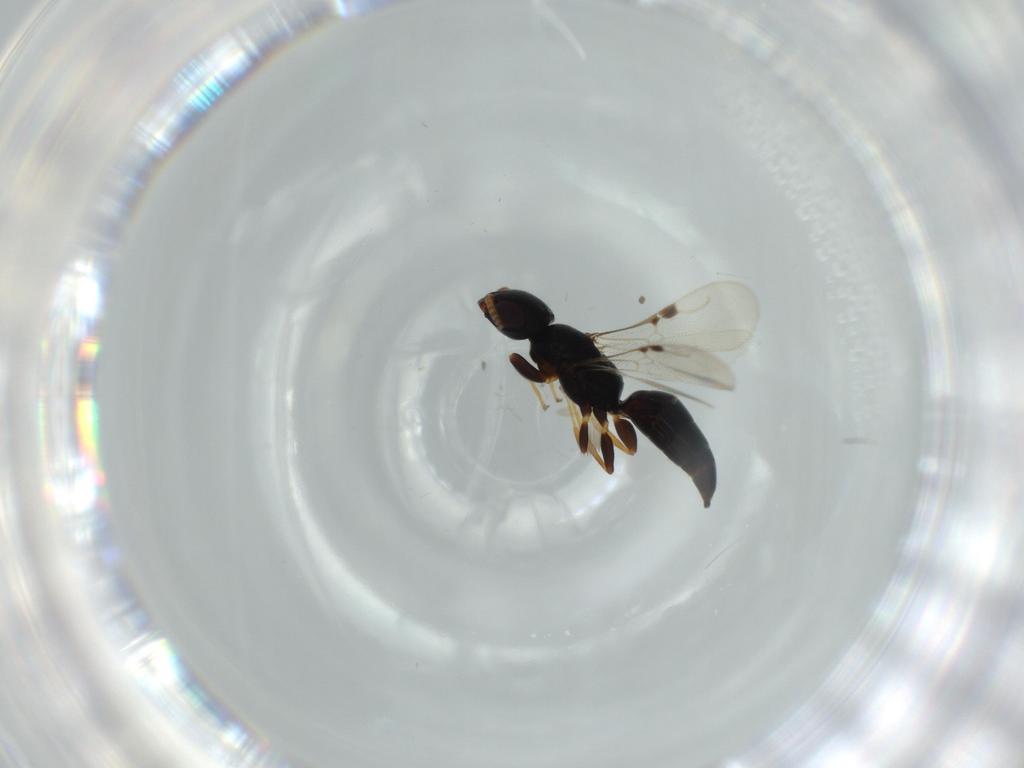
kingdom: Animalia
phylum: Arthropoda
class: Insecta
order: Hymenoptera
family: Bethylidae
